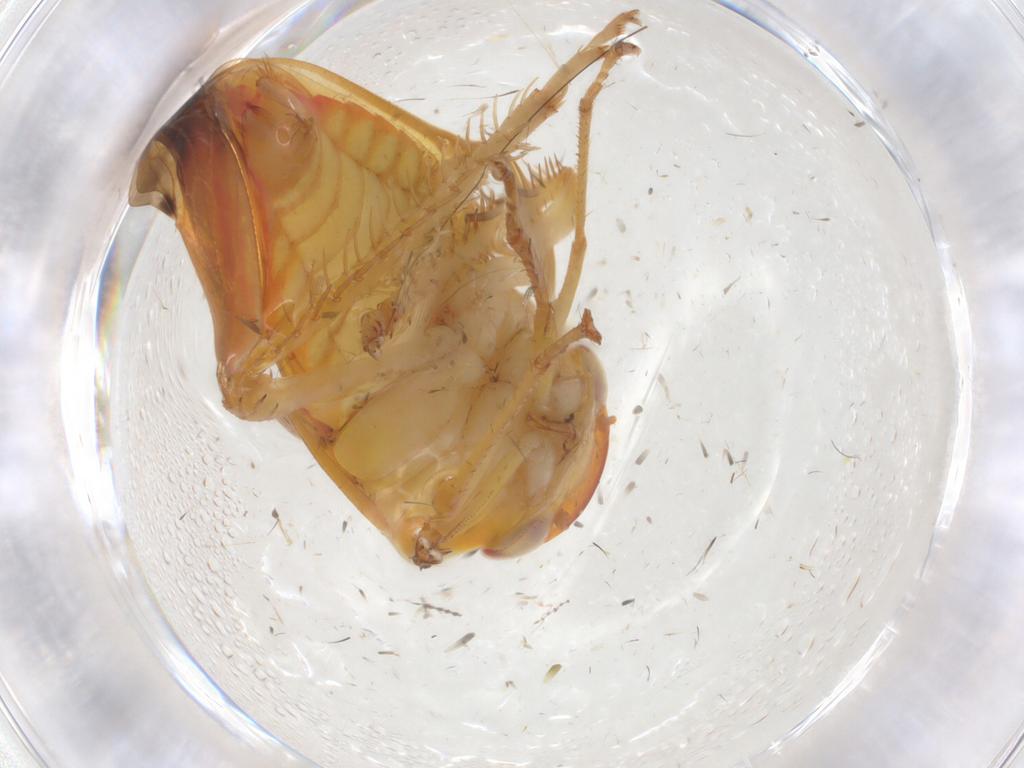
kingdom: Animalia
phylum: Arthropoda
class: Insecta
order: Hemiptera
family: Cicadellidae
